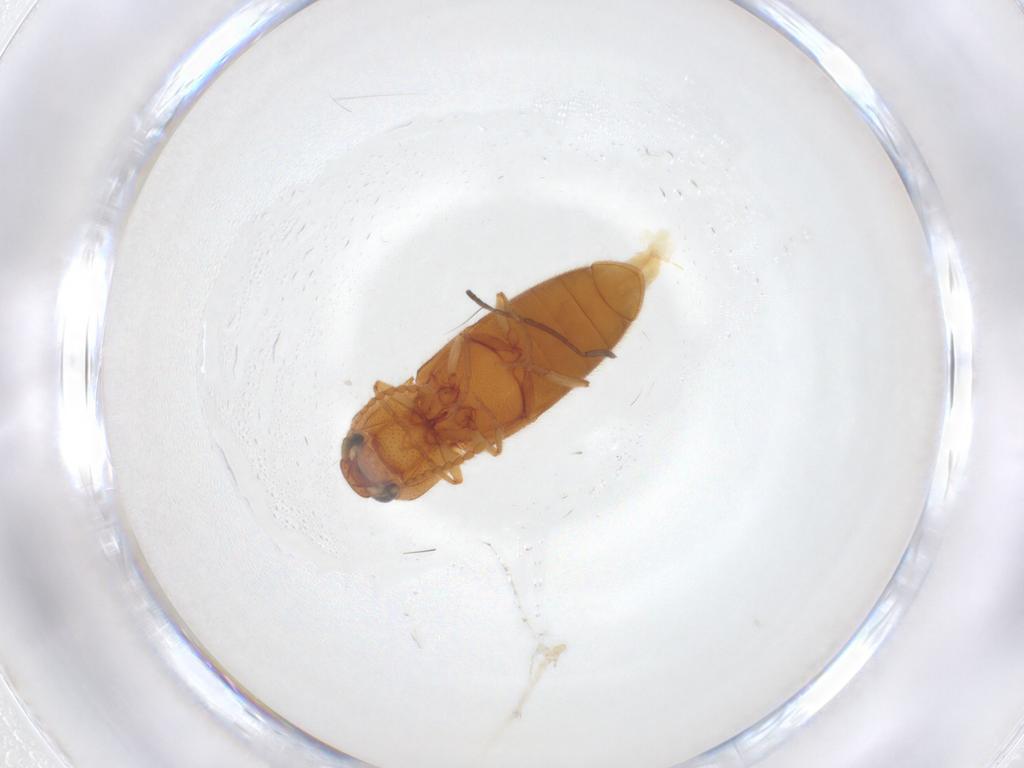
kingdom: Animalia
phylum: Arthropoda
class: Insecta
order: Coleoptera
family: Elateridae
